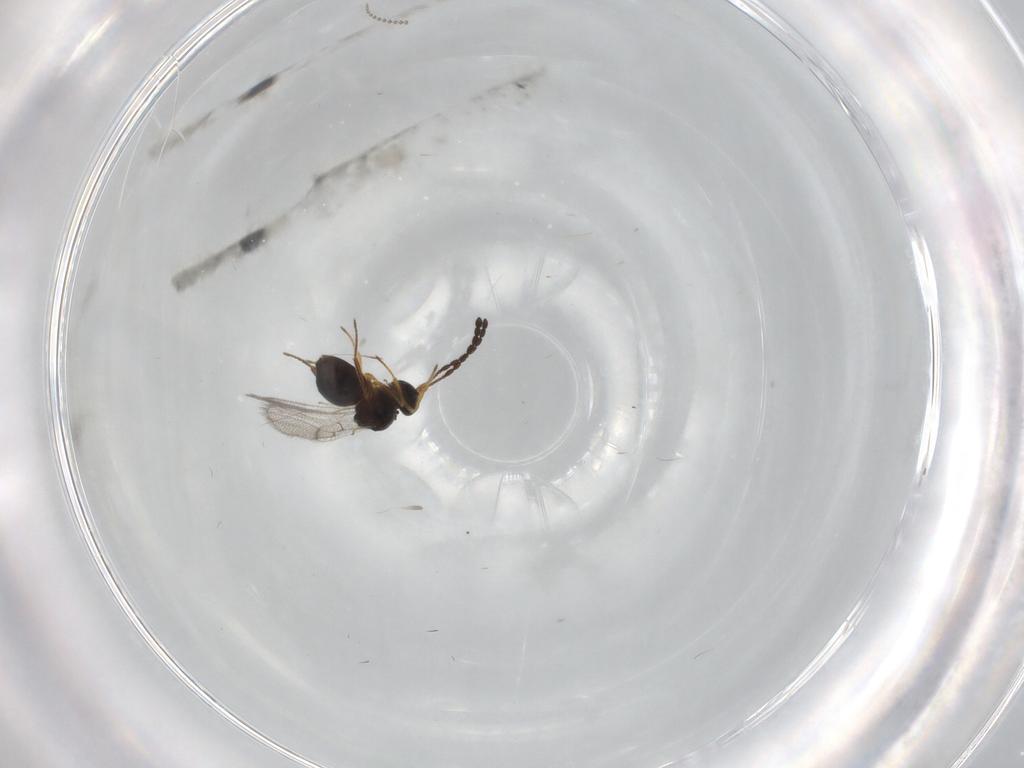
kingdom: Animalia
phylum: Arthropoda
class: Insecta
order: Hymenoptera
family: Figitidae
